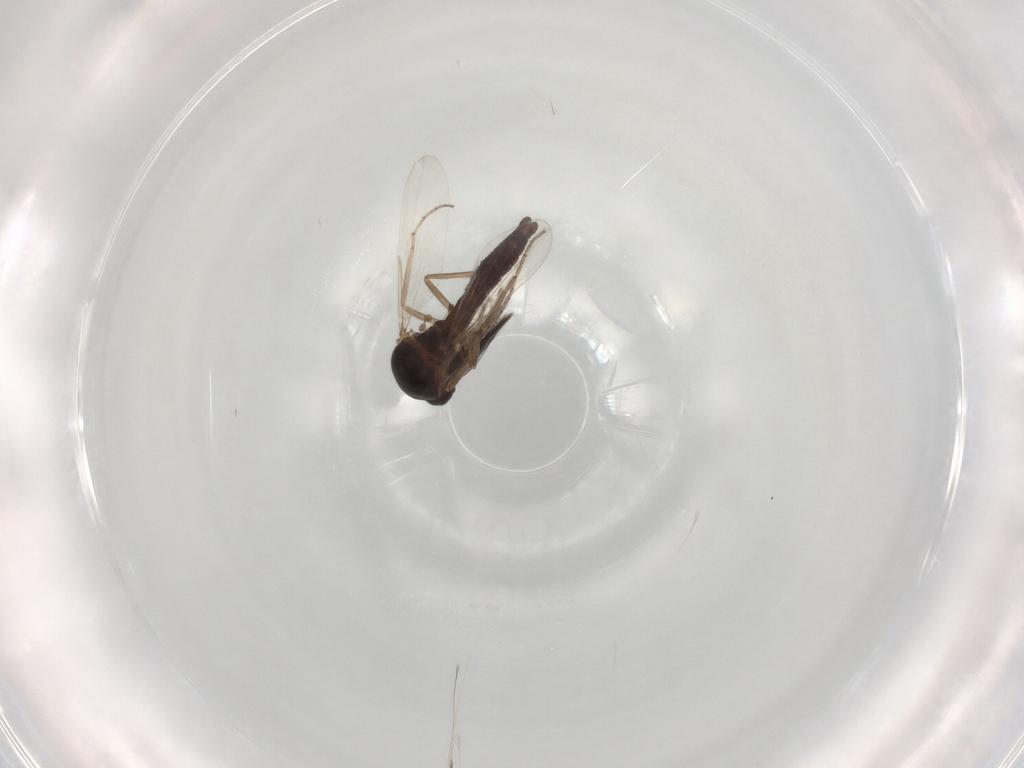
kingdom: Animalia
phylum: Arthropoda
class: Insecta
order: Diptera
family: Ceratopogonidae
